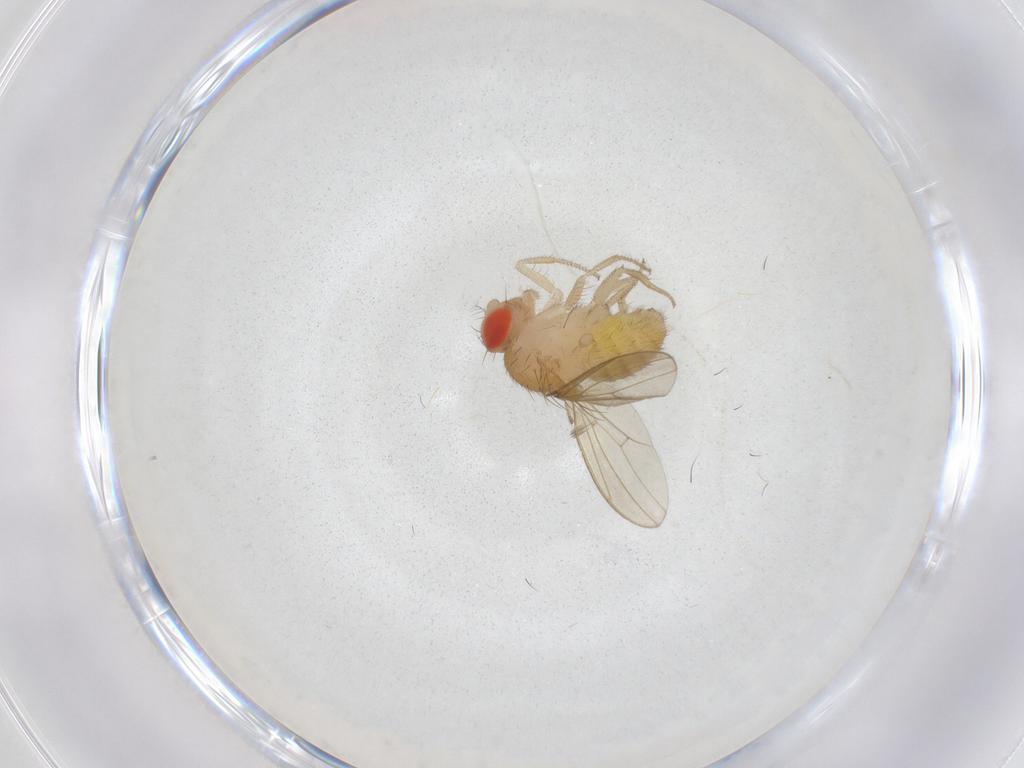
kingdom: Animalia
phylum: Arthropoda
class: Insecta
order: Diptera
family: Drosophilidae
